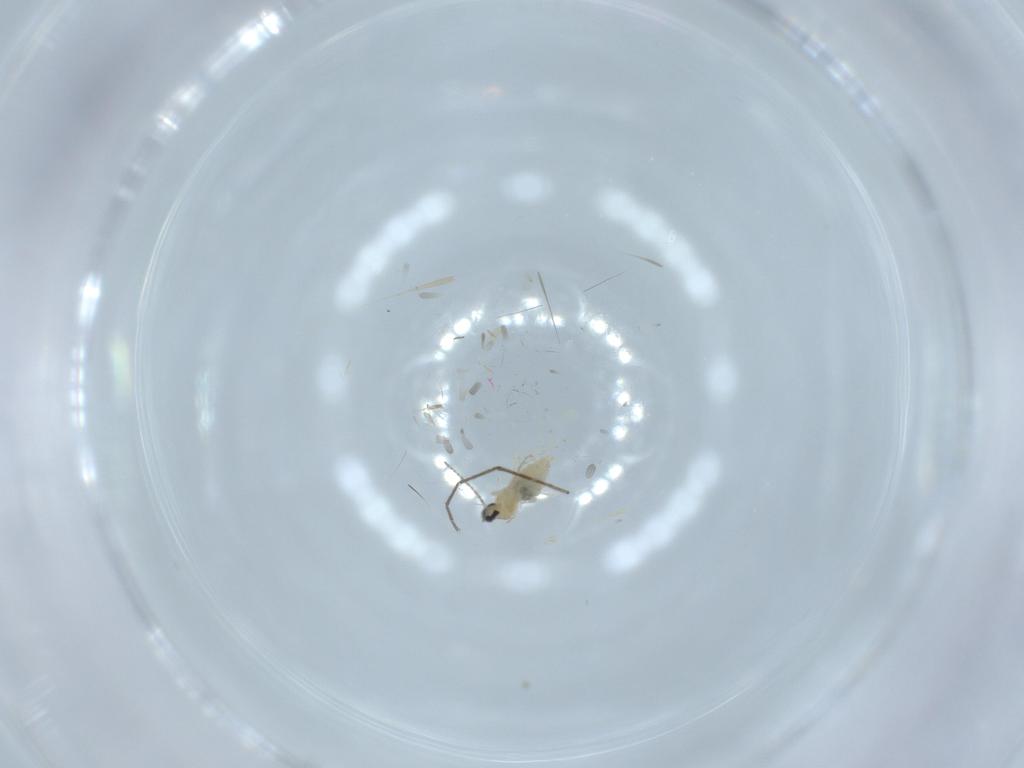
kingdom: Animalia
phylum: Arthropoda
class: Insecta
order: Diptera
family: Cecidomyiidae
